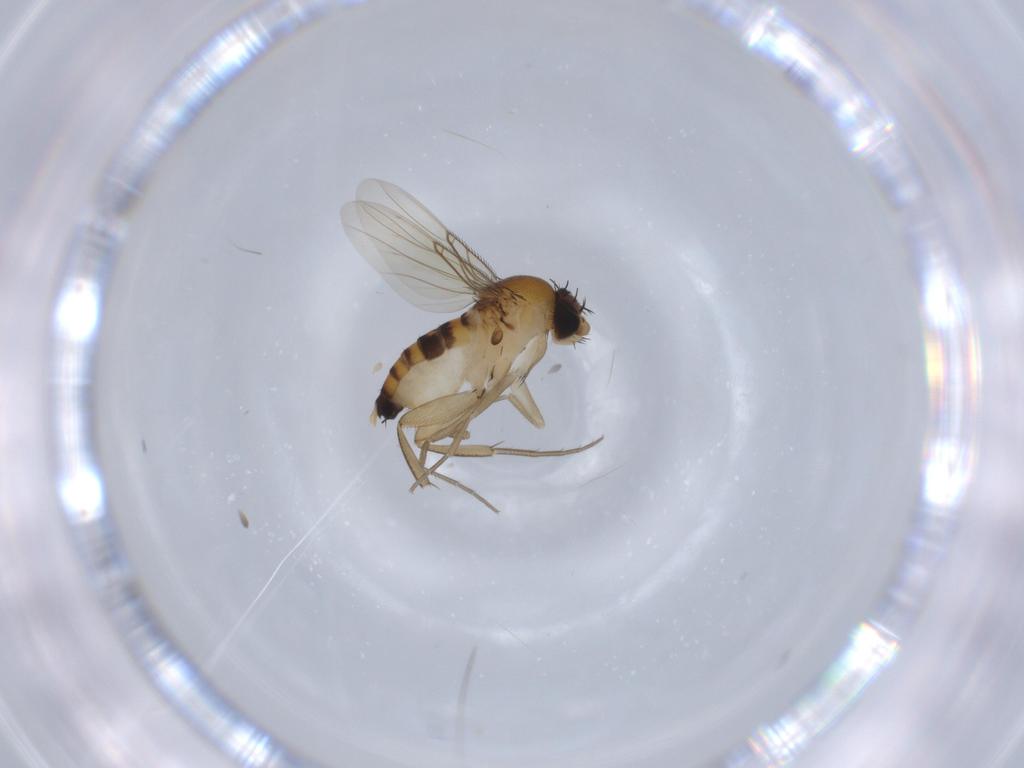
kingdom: Animalia
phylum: Arthropoda
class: Insecta
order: Diptera
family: Phoridae
